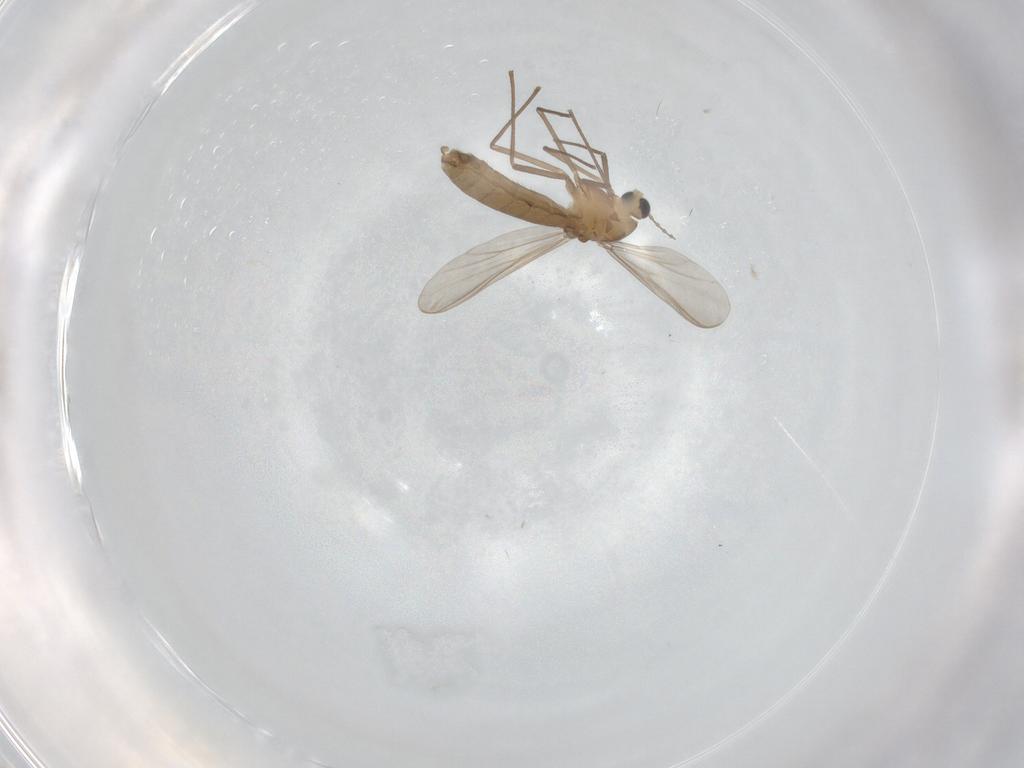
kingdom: Animalia
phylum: Arthropoda
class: Insecta
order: Diptera
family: Chironomidae
